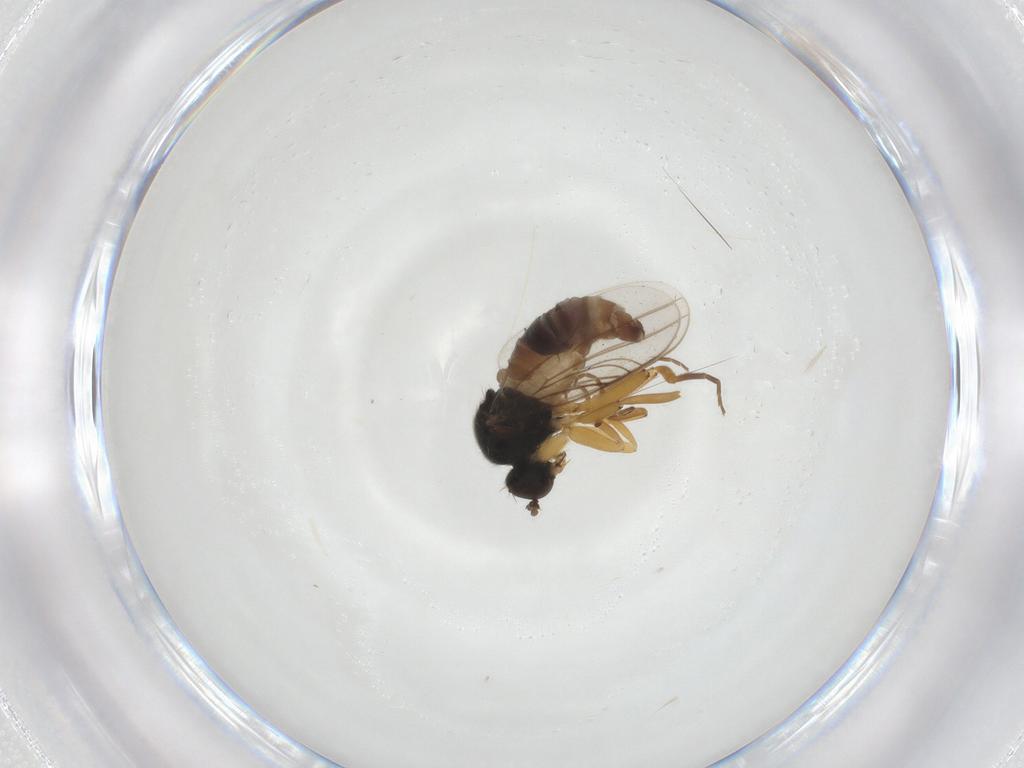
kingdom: Animalia
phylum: Arthropoda
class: Insecta
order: Diptera
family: Hybotidae
